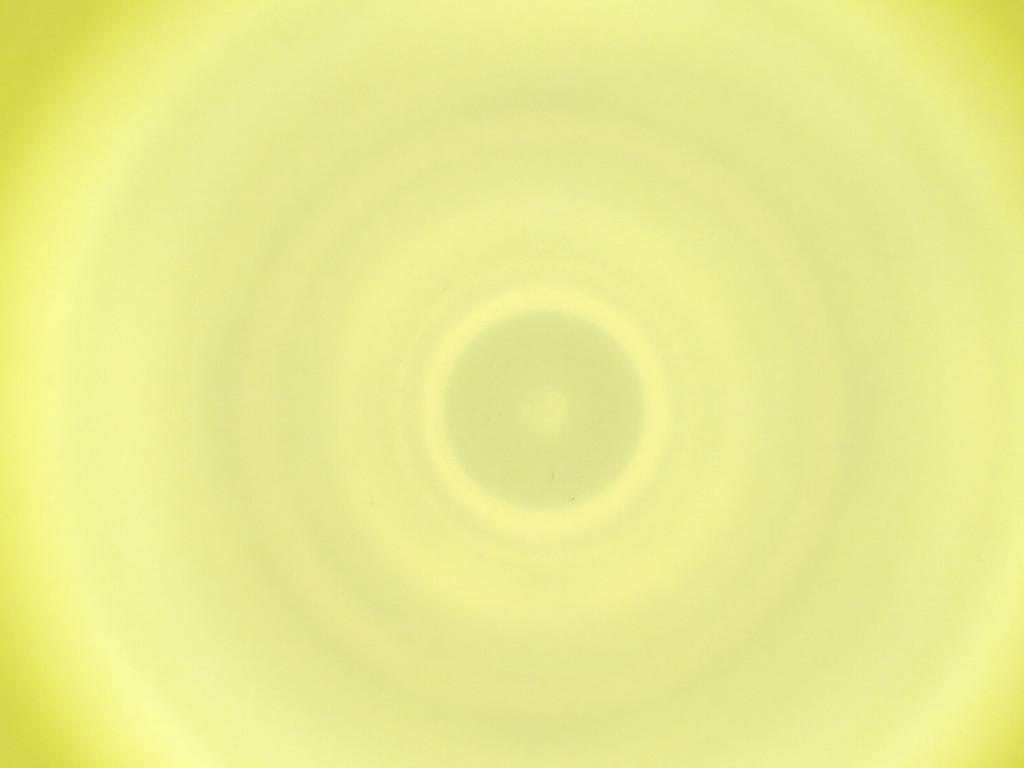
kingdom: Animalia
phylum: Arthropoda
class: Insecta
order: Diptera
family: Cecidomyiidae
